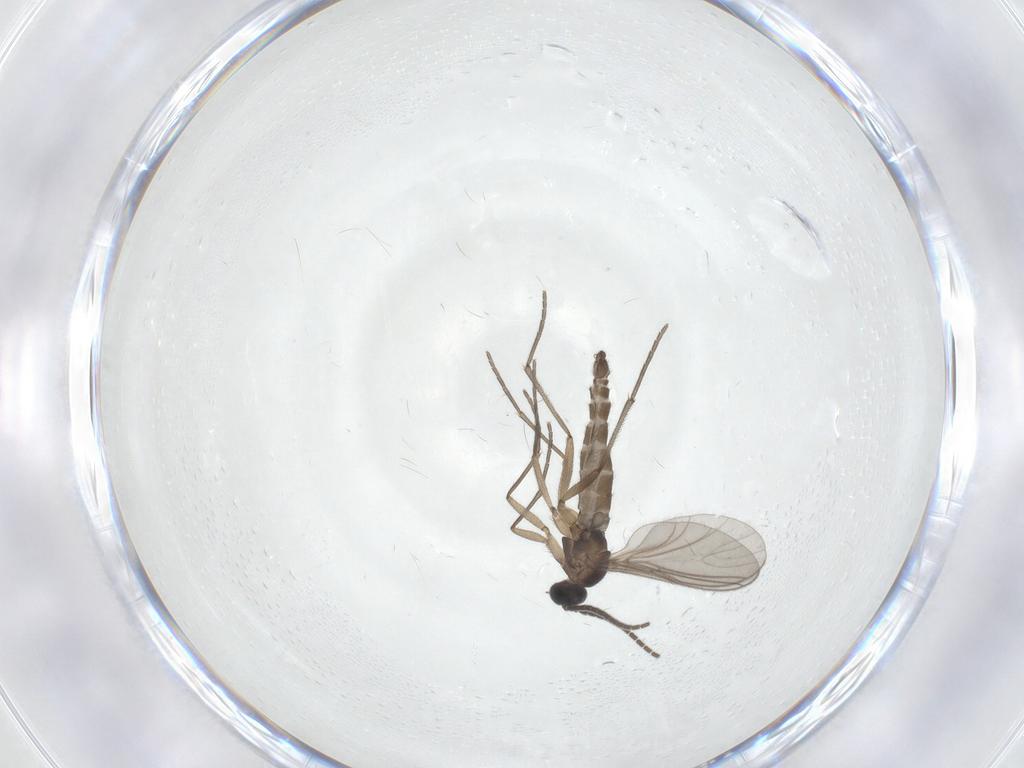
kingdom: Animalia
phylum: Arthropoda
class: Insecta
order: Diptera
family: Sciaridae
